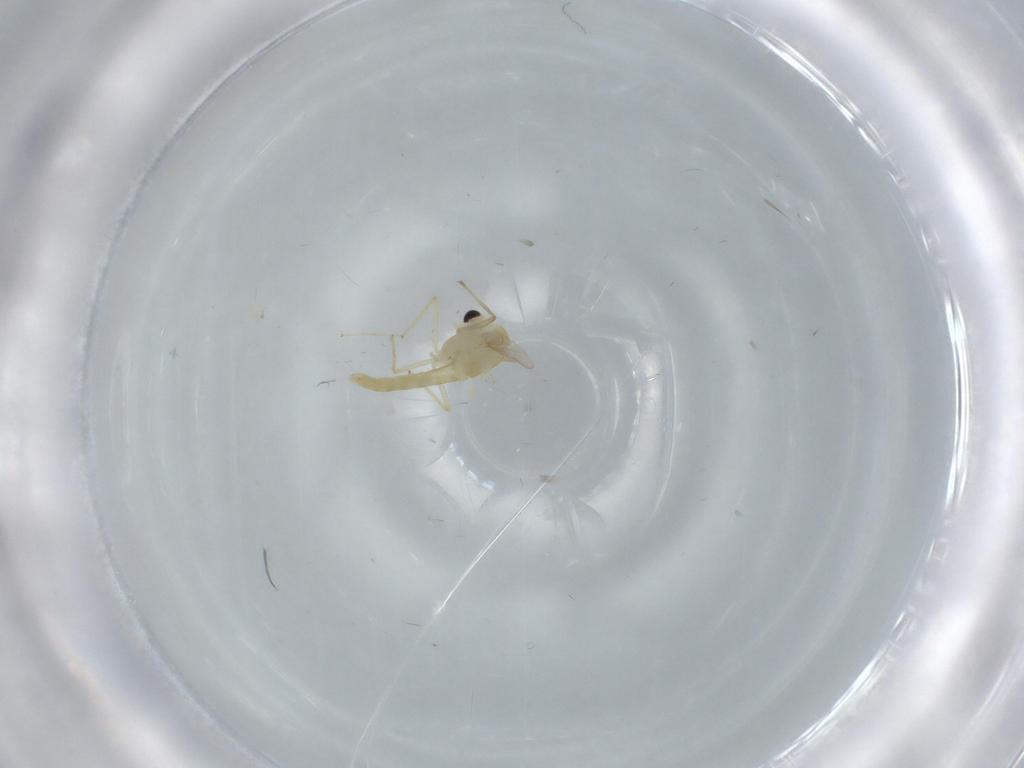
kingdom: Animalia
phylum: Arthropoda
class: Insecta
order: Diptera
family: Chironomidae
